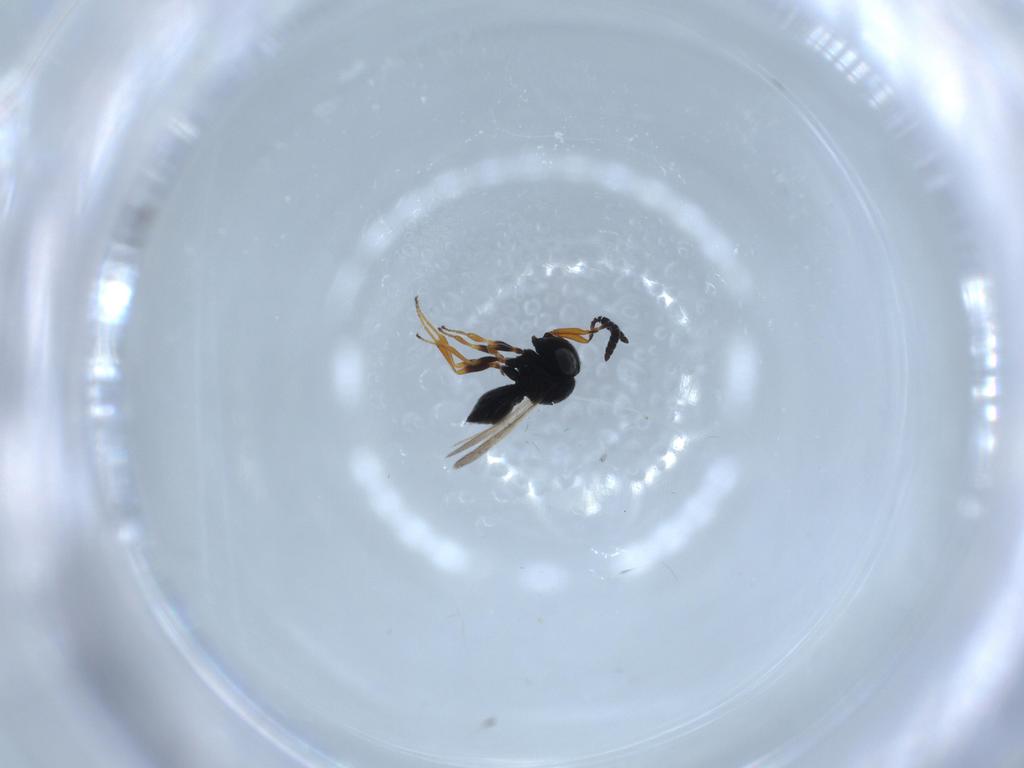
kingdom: Animalia
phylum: Arthropoda
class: Insecta
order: Hymenoptera
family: Scelionidae
